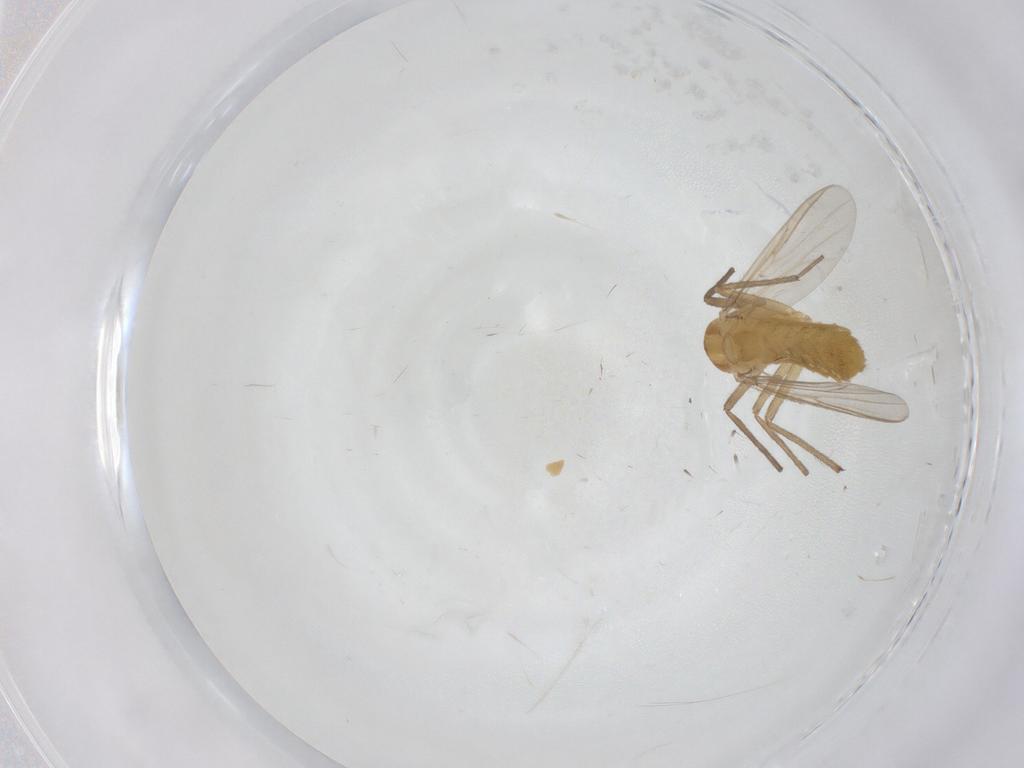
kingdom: Animalia
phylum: Arthropoda
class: Insecta
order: Diptera
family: Chironomidae
